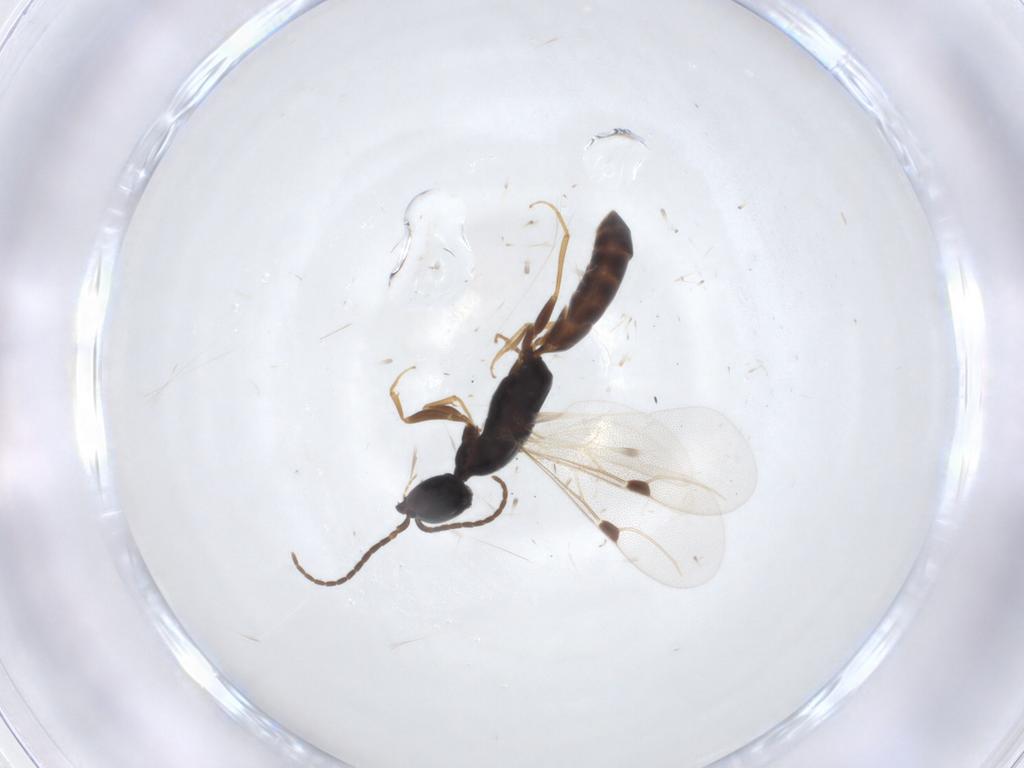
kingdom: Animalia
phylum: Arthropoda
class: Insecta
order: Hymenoptera
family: Bethylidae
